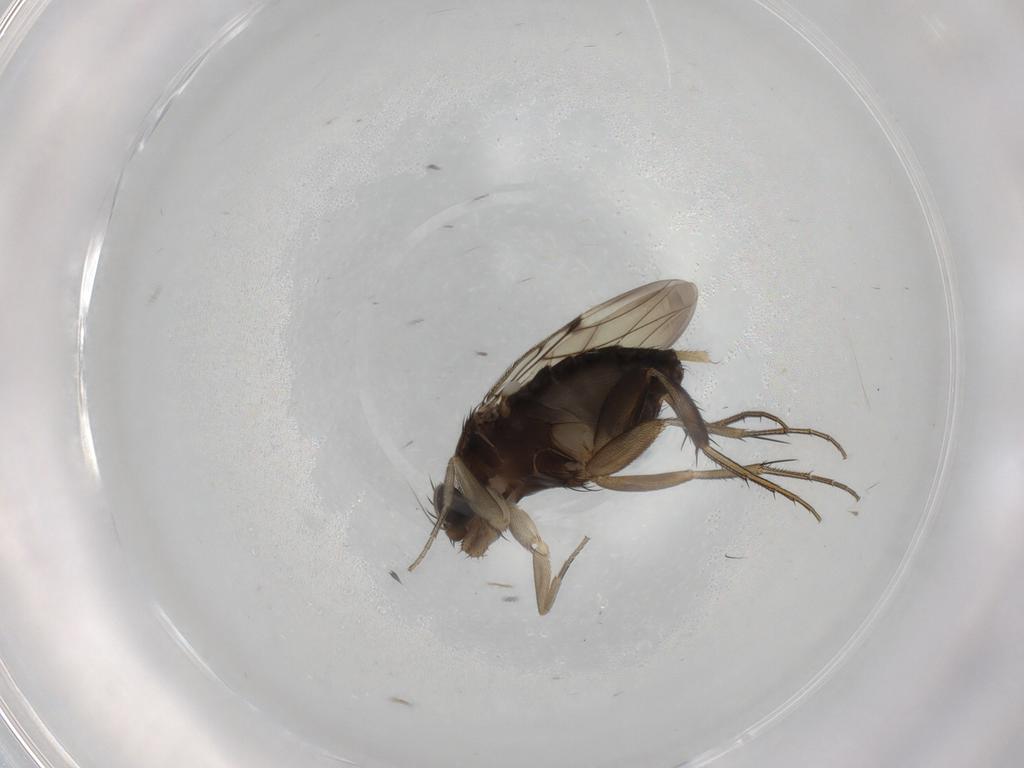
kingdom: Animalia
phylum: Arthropoda
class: Insecta
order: Diptera
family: Phoridae
